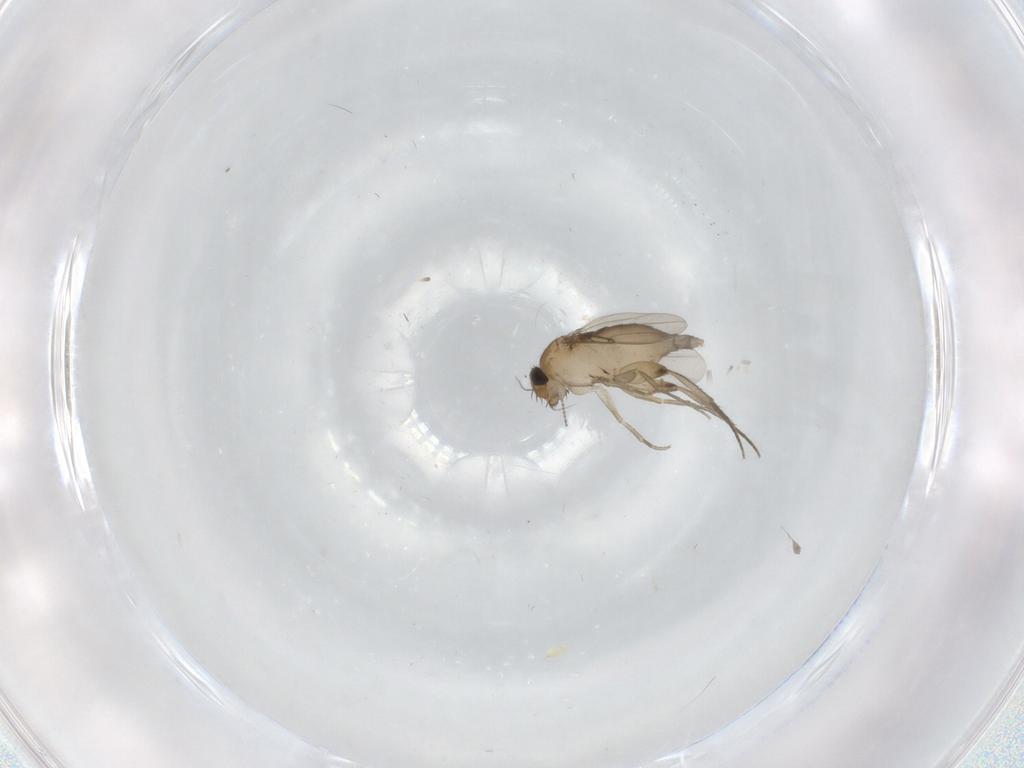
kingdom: Animalia
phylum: Arthropoda
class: Insecta
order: Diptera
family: Phoridae
